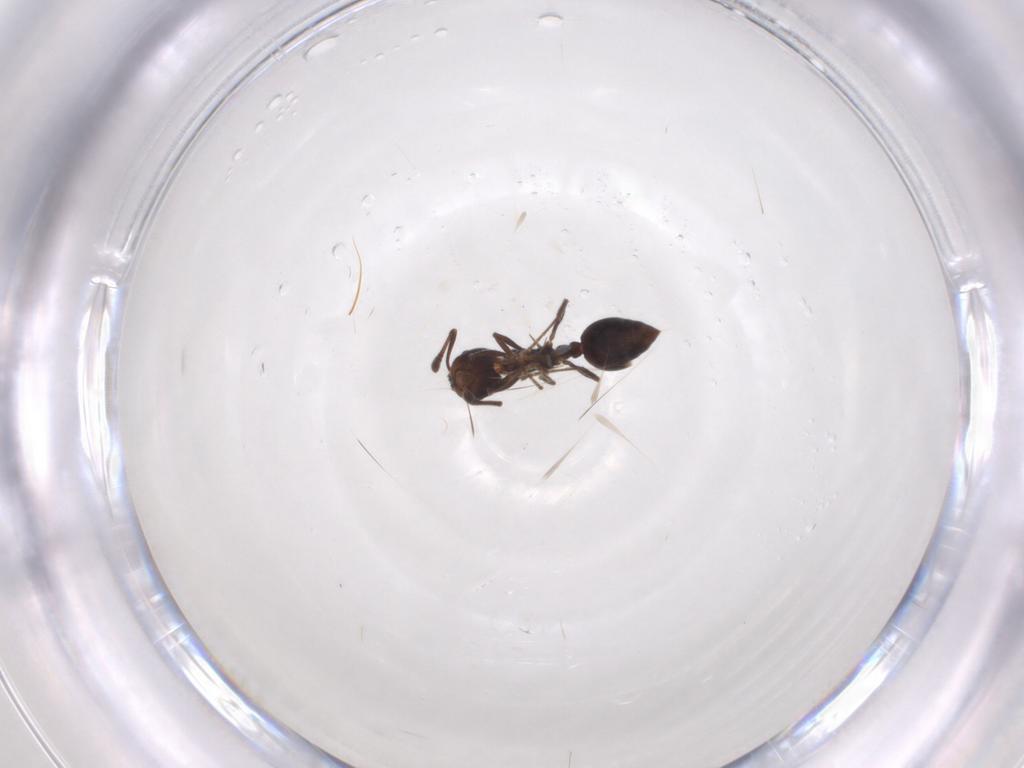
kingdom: Animalia
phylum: Arthropoda
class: Insecta
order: Hymenoptera
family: Formicidae
